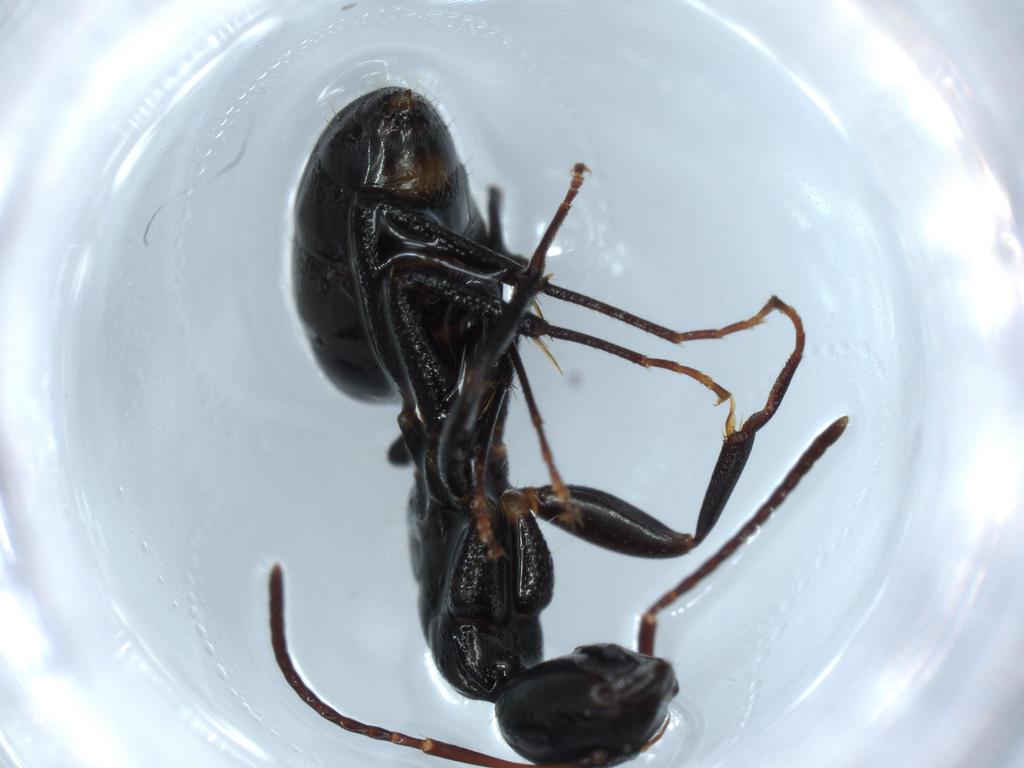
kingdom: Animalia
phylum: Arthropoda
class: Insecta
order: Hymenoptera
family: Formicidae
